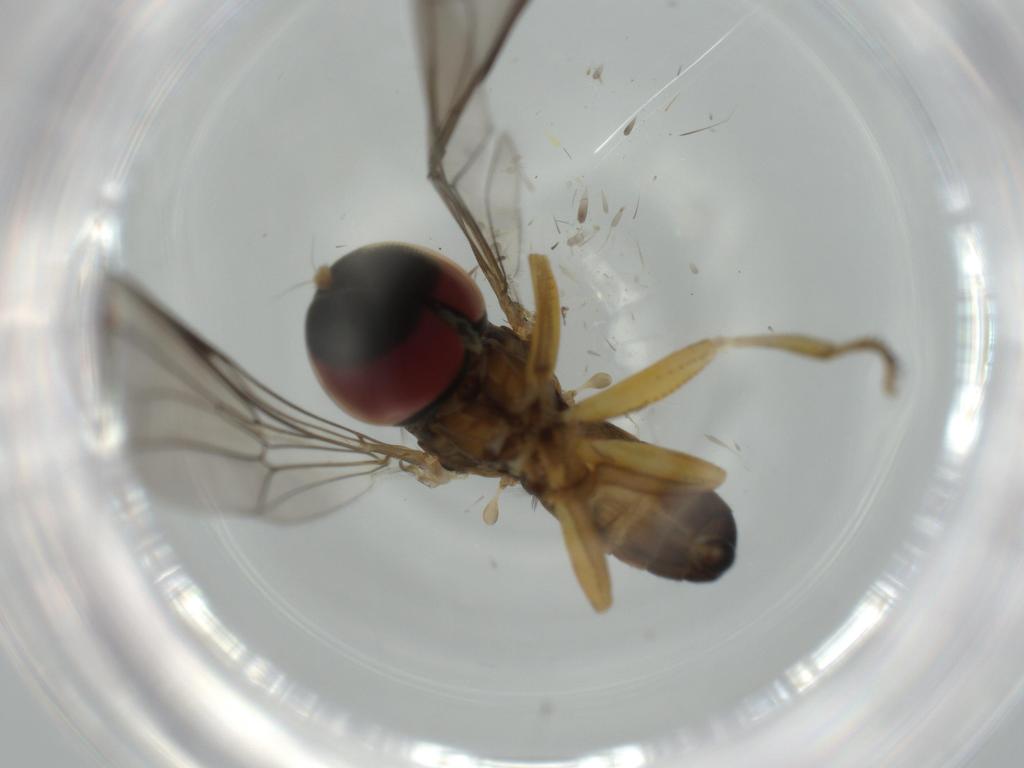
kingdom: Animalia
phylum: Arthropoda
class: Insecta
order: Diptera
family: Pipunculidae
